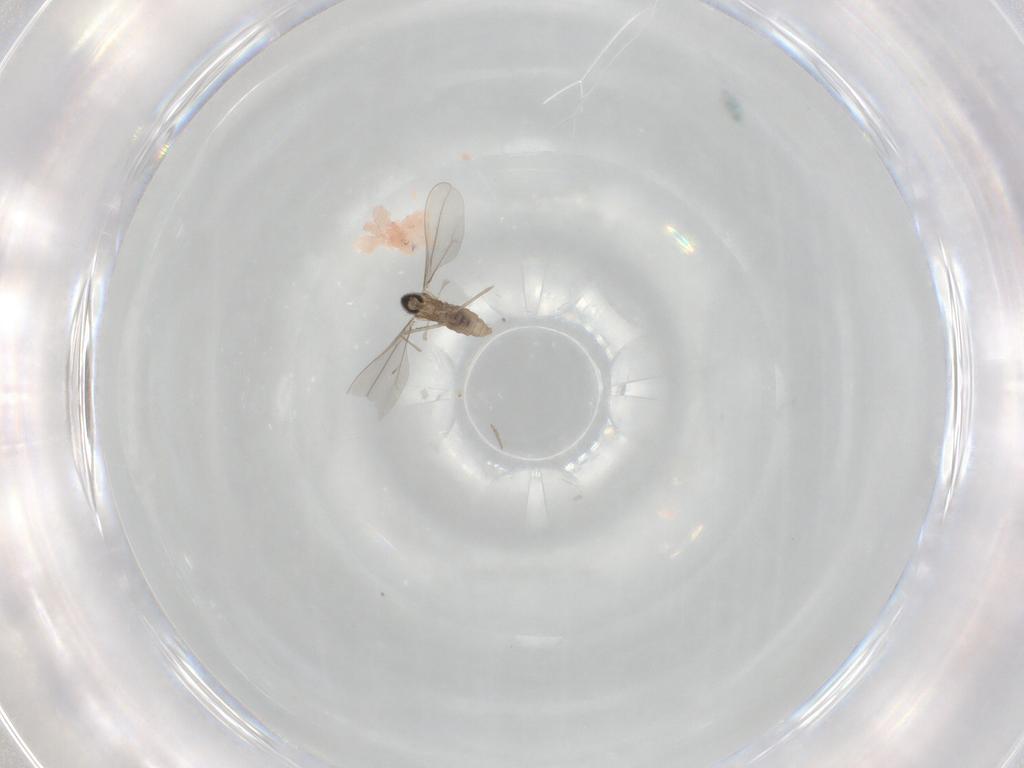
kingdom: Animalia
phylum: Arthropoda
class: Insecta
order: Diptera
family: Cecidomyiidae
